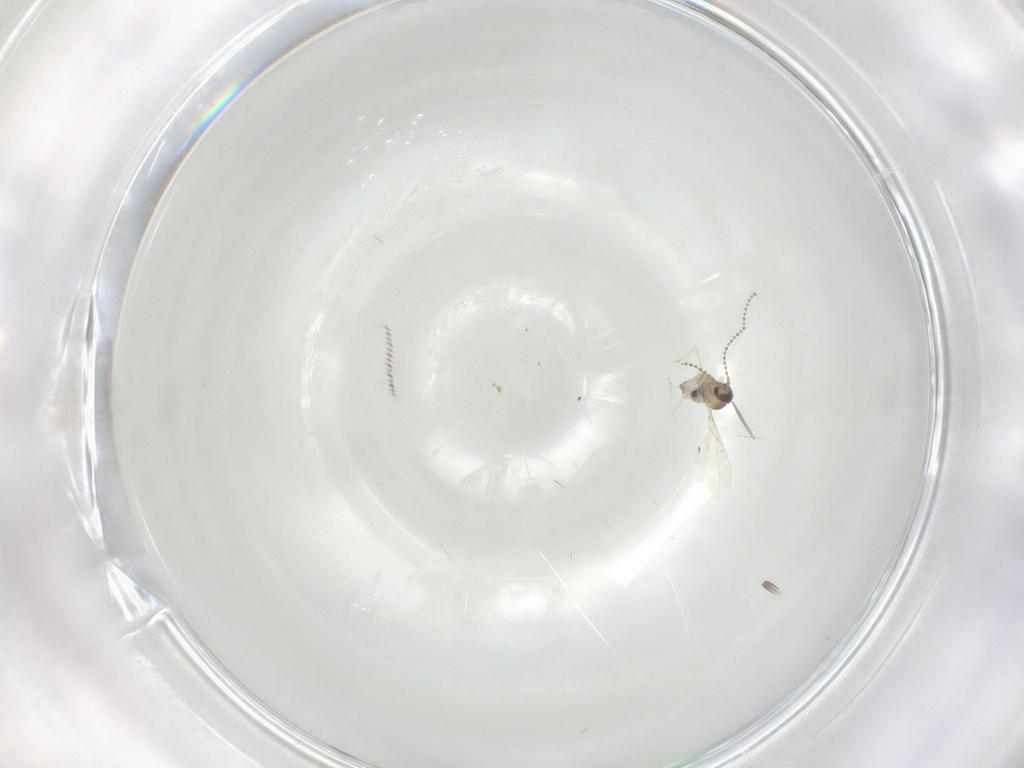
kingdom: Animalia
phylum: Arthropoda
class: Insecta
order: Diptera
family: Cecidomyiidae
